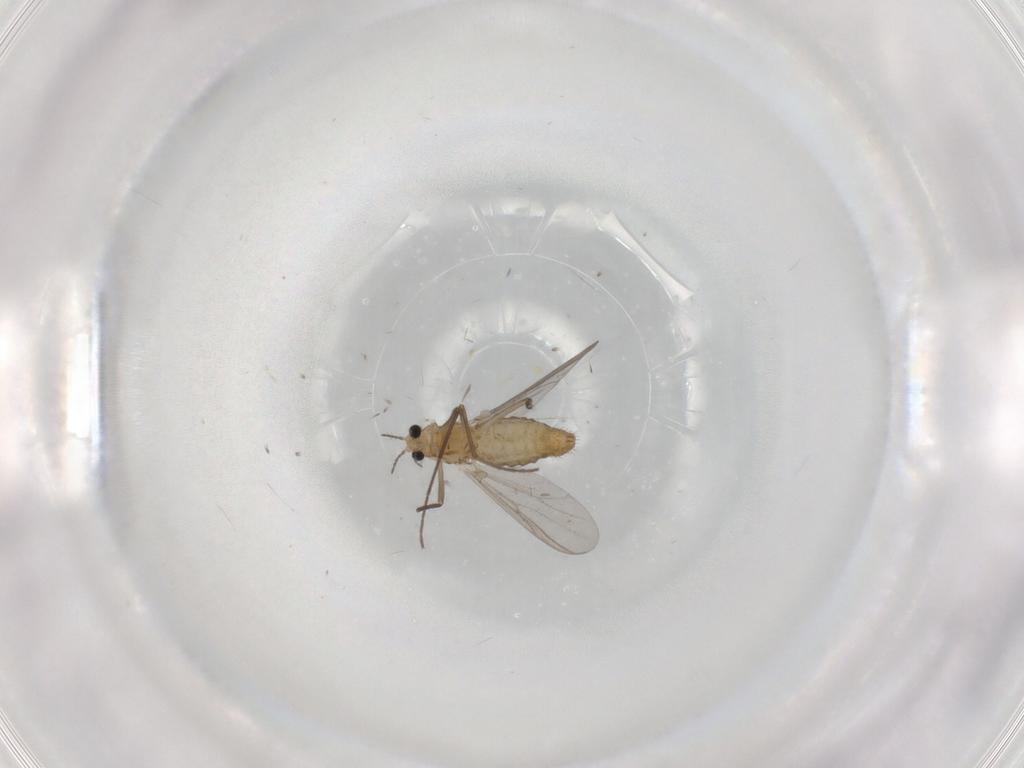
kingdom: Animalia
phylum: Arthropoda
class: Insecta
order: Diptera
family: Chironomidae
